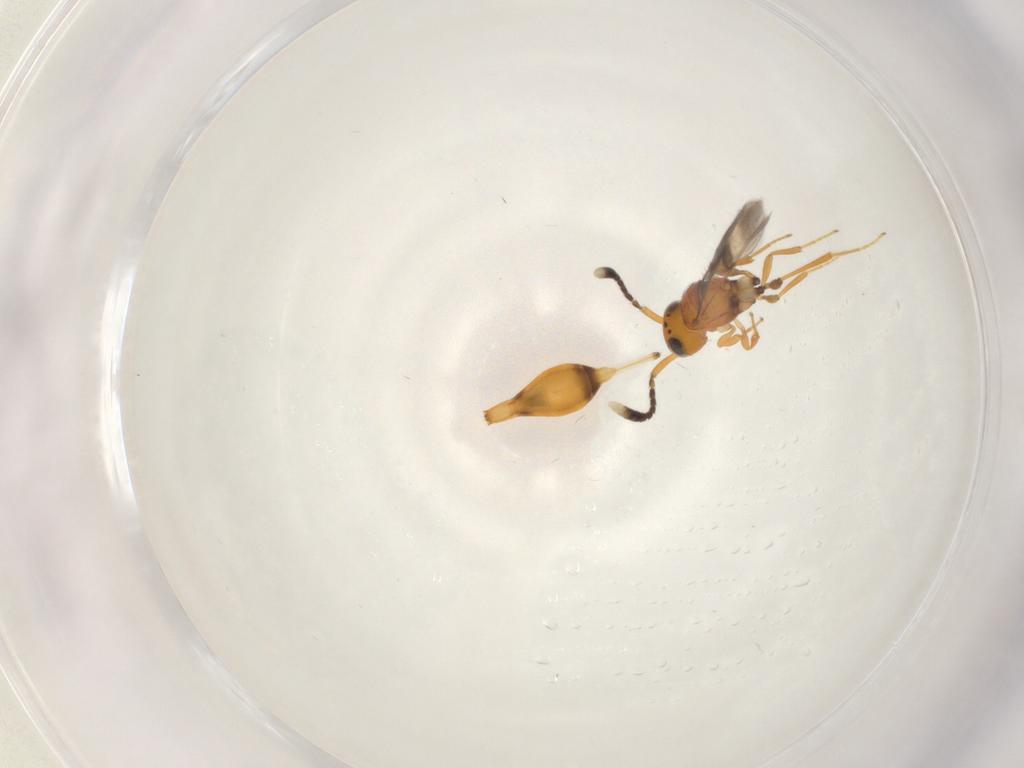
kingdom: Animalia
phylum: Arthropoda
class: Insecta
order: Hymenoptera
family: Scelionidae
